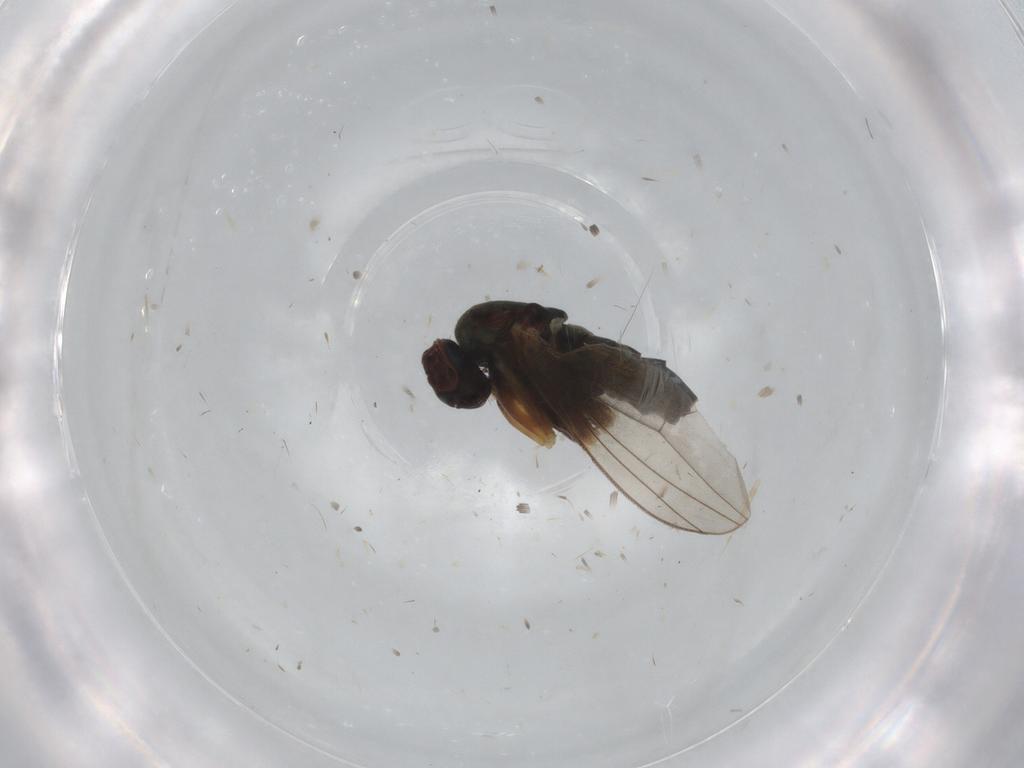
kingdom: Animalia
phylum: Arthropoda
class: Insecta
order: Diptera
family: Dolichopodidae
